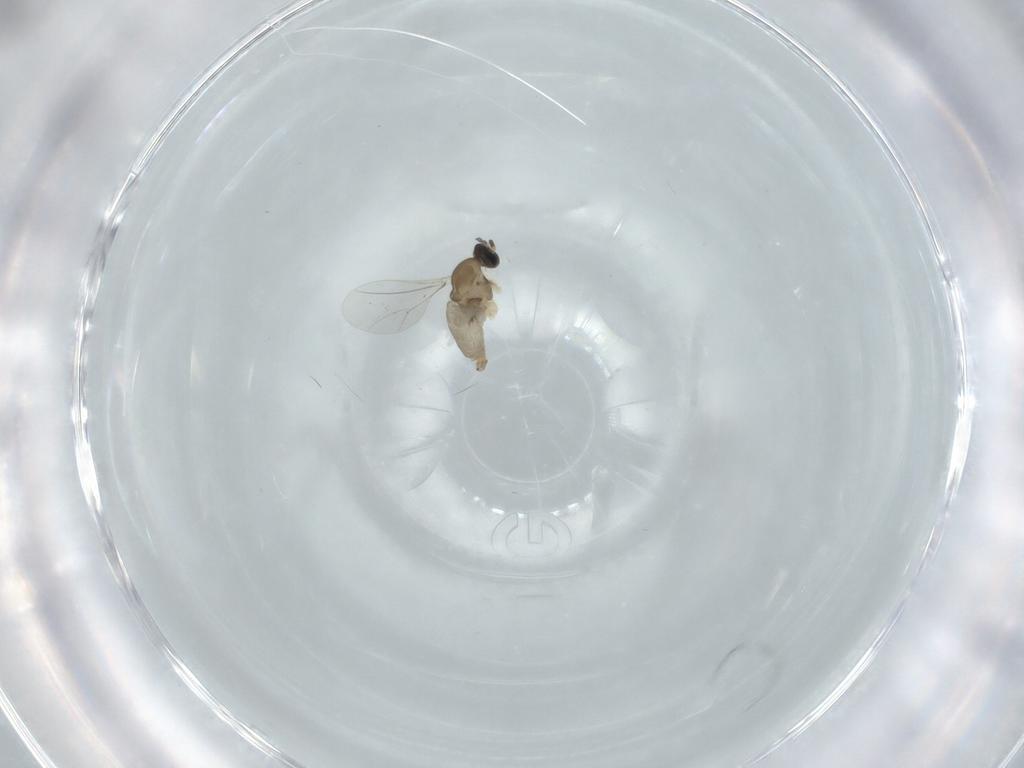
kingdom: Animalia
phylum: Arthropoda
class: Insecta
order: Diptera
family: Cecidomyiidae
